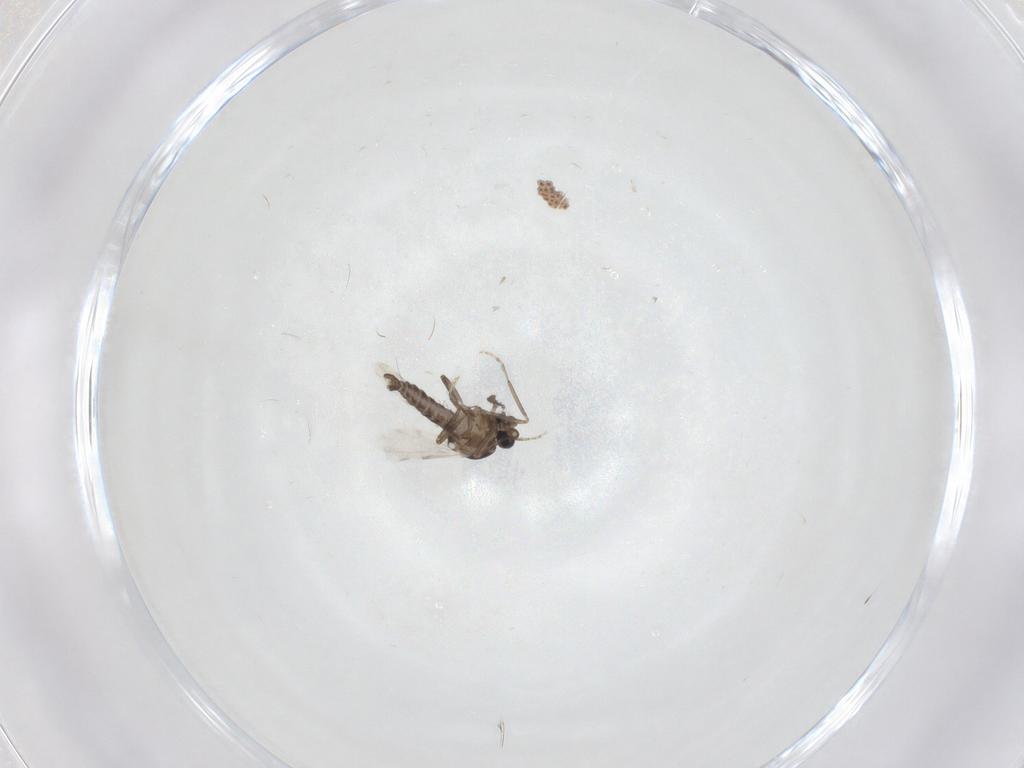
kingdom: Animalia
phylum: Arthropoda
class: Insecta
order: Diptera
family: Ceratopogonidae
